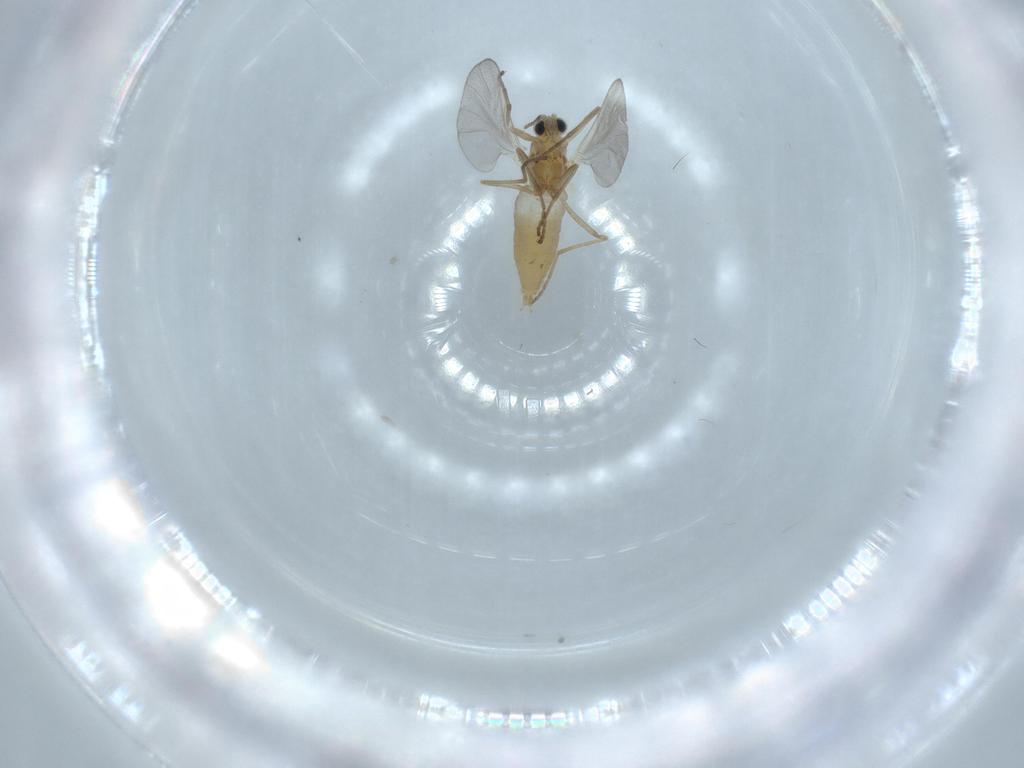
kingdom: Animalia
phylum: Arthropoda
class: Insecta
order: Diptera
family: Cecidomyiidae
